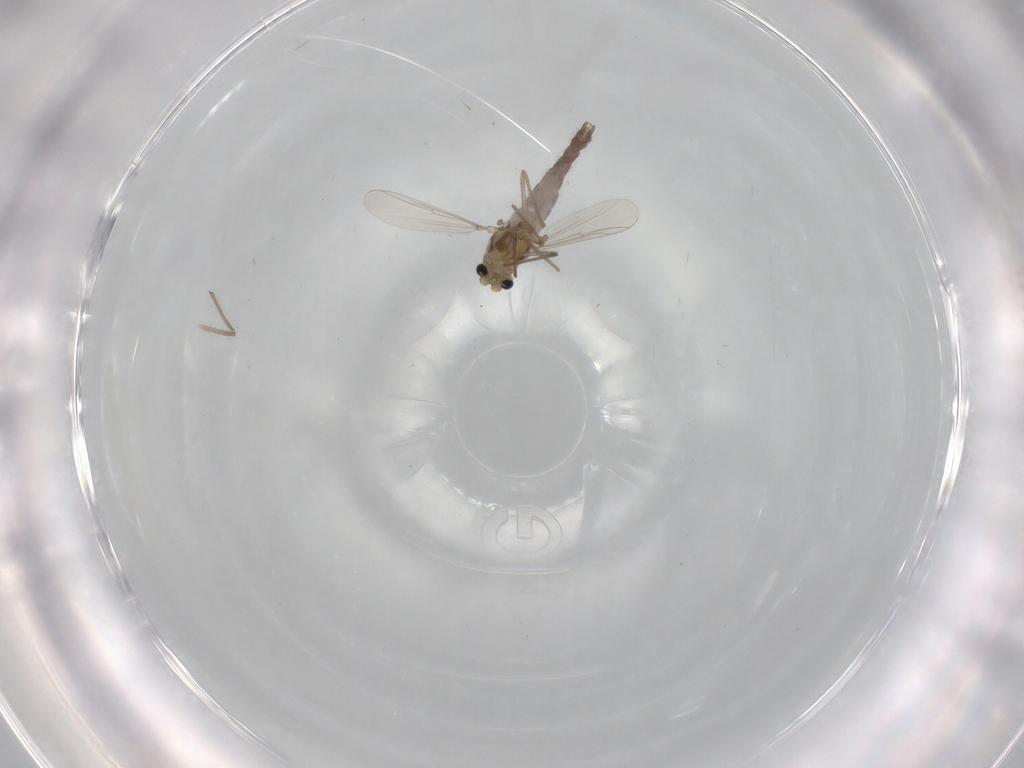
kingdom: Animalia
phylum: Arthropoda
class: Insecta
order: Diptera
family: Chironomidae
